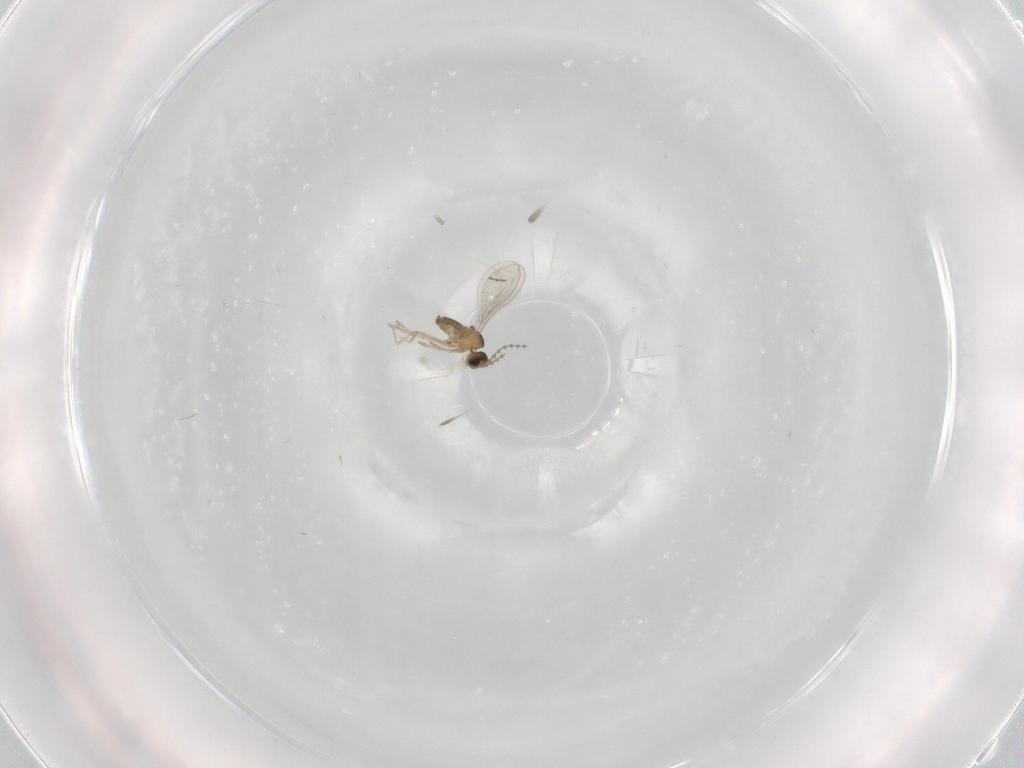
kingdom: Animalia
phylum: Arthropoda
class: Insecta
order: Diptera
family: Cecidomyiidae
